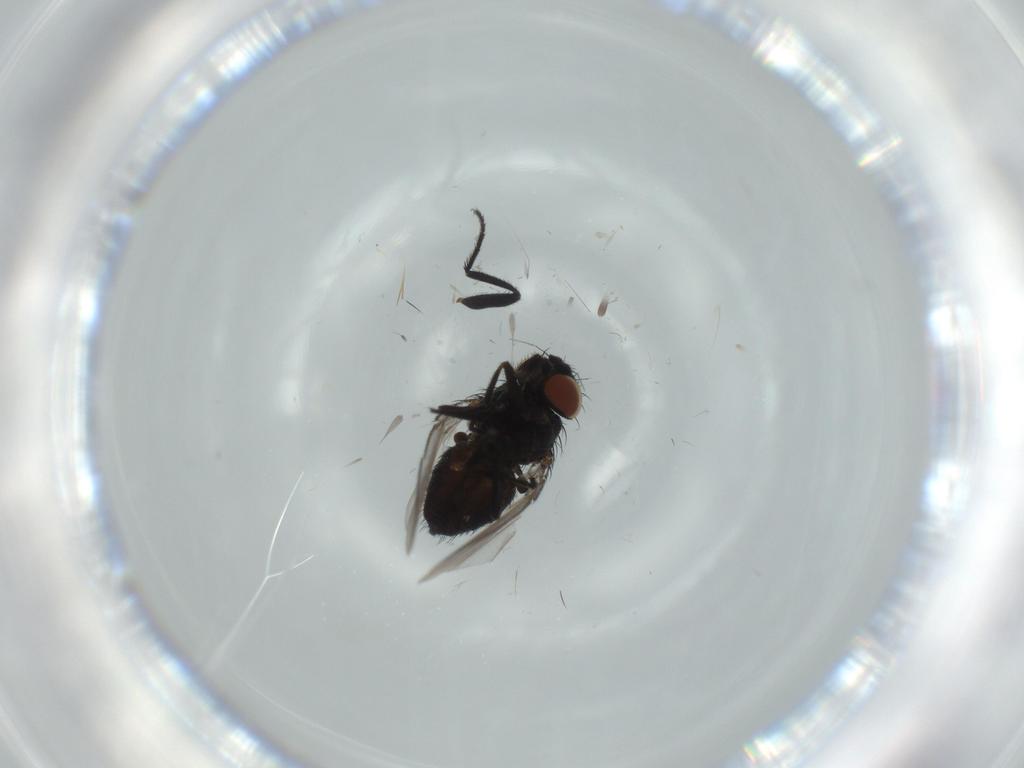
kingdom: Animalia
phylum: Arthropoda
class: Insecta
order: Diptera
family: Milichiidae
